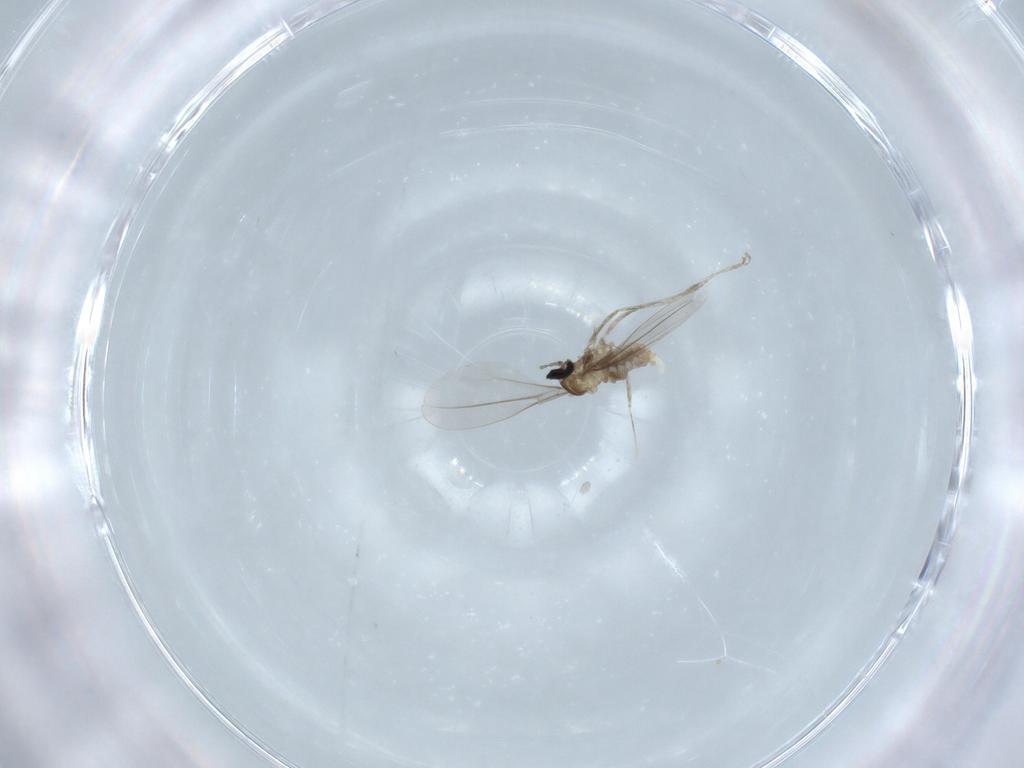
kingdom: Animalia
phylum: Arthropoda
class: Insecta
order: Diptera
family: Cecidomyiidae
